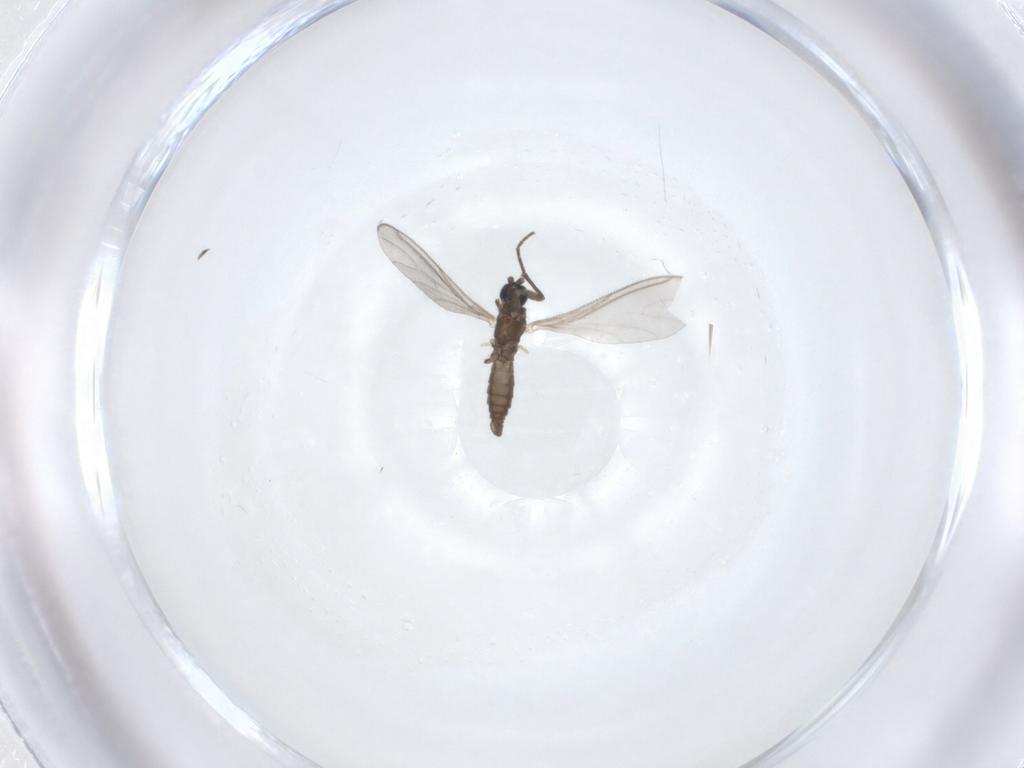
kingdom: Animalia
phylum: Arthropoda
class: Insecta
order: Diptera
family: Sciaridae
